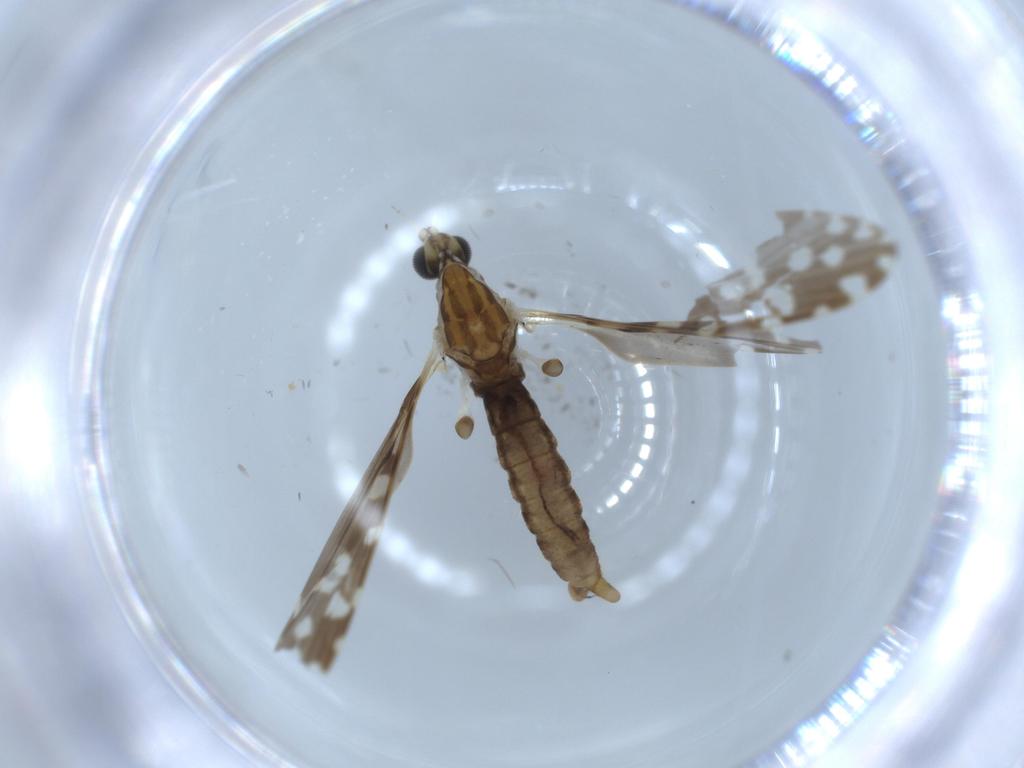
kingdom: Animalia
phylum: Arthropoda
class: Insecta
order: Diptera
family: Limoniidae
